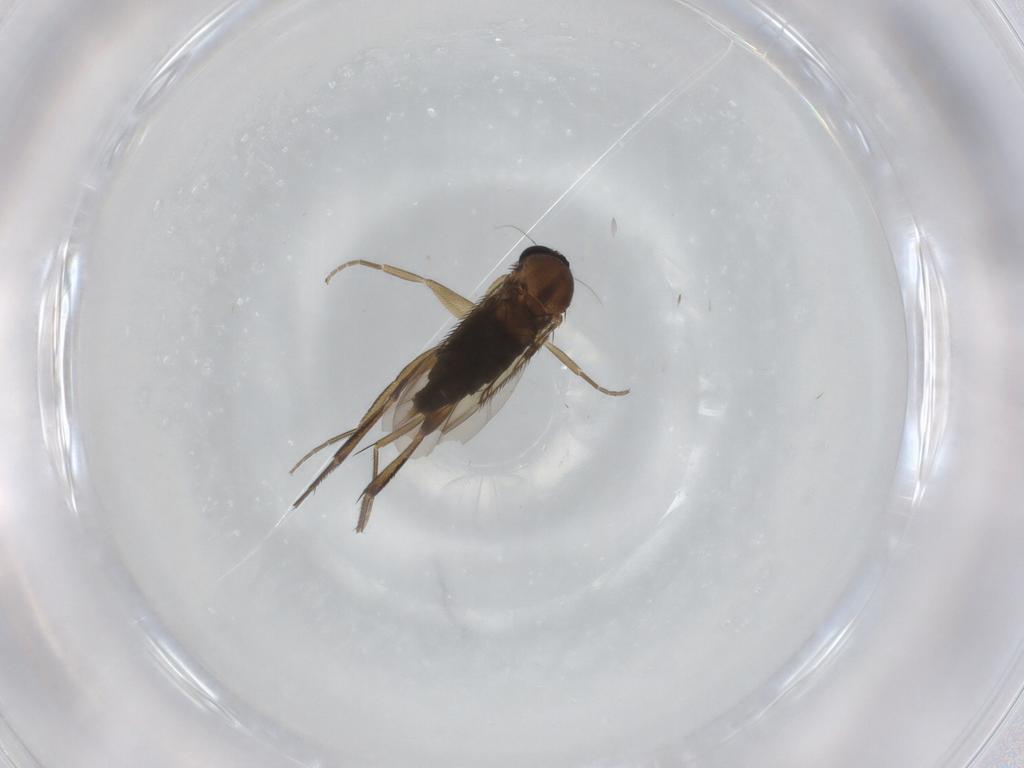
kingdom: Animalia
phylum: Arthropoda
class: Insecta
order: Diptera
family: Phoridae
